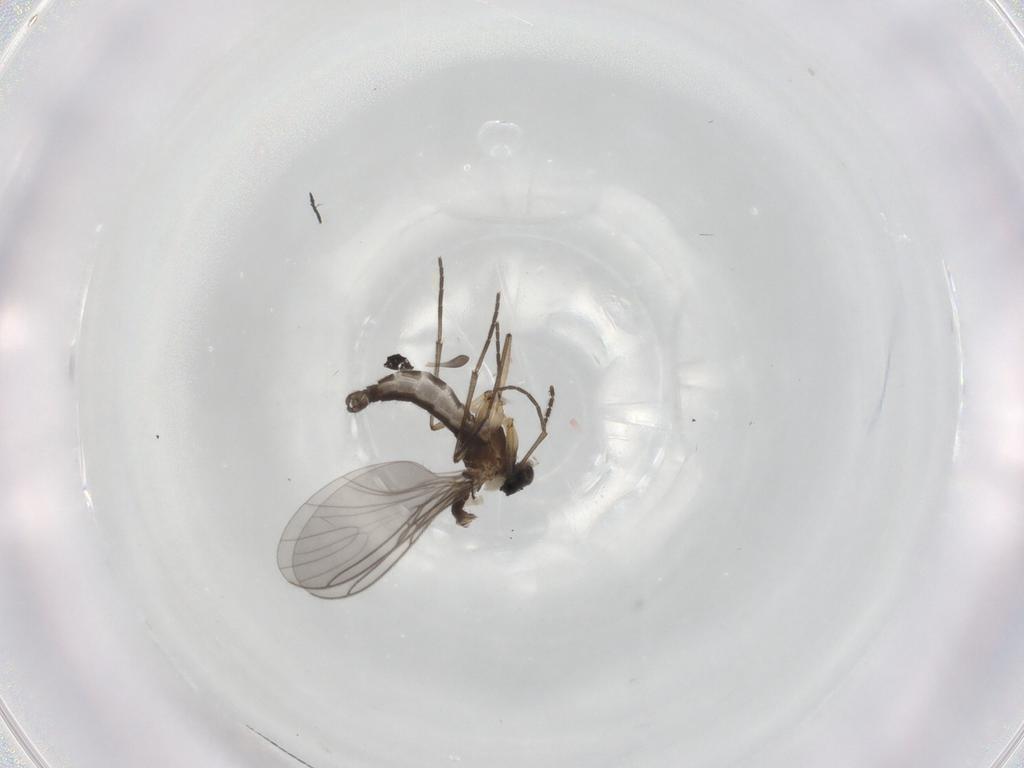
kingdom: Animalia
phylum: Arthropoda
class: Insecta
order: Diptera
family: Sciaridae
